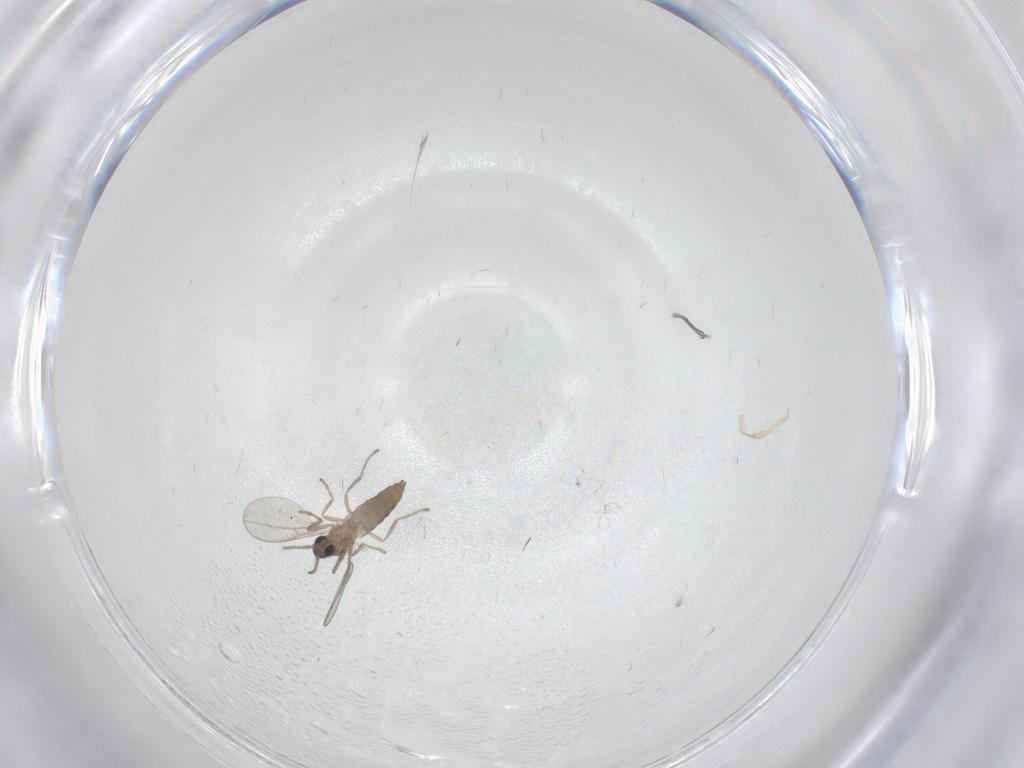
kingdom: Animalia
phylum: Arthropoda
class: Insecta
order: Diptera
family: Cecidomyiidae
